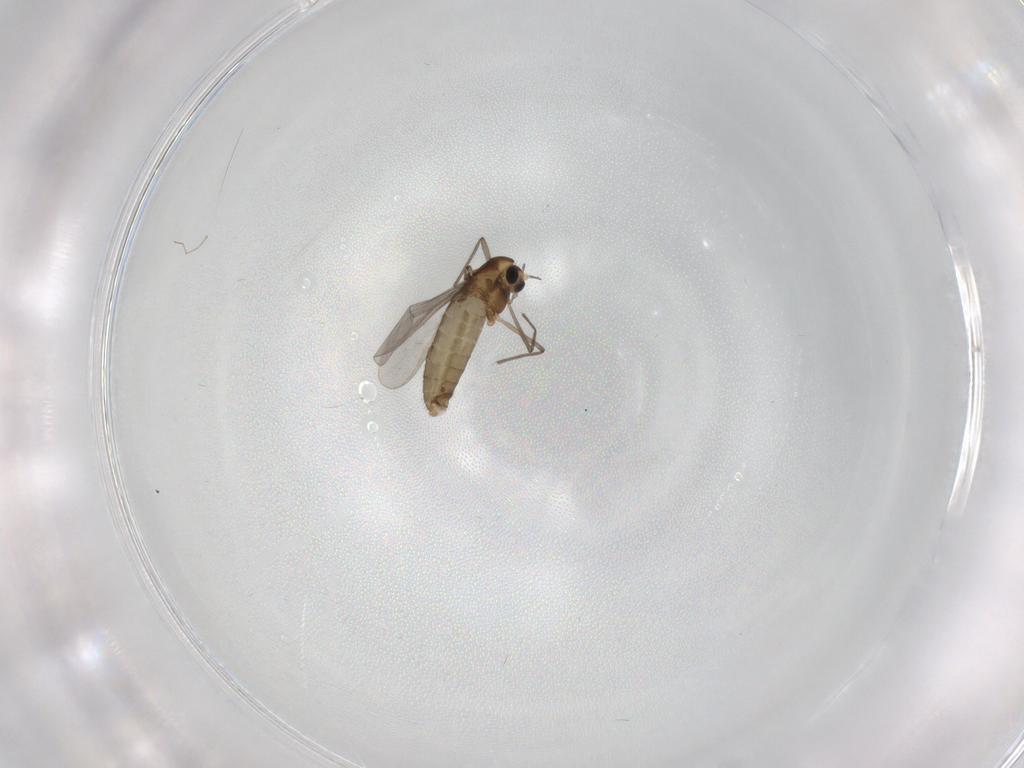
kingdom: Animalia
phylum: Arthropoda
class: Insecta
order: Diptera
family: Cecidomyiidae
